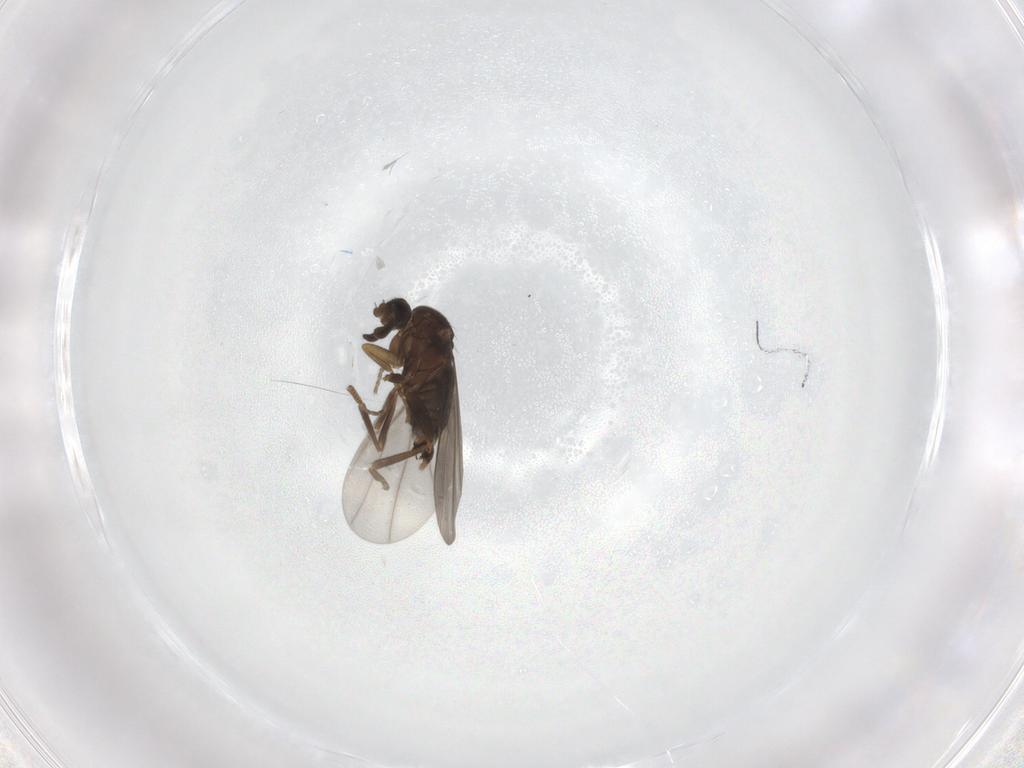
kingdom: Animalia
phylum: Arthropoda
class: Insecta
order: Diptera
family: Phoridae
